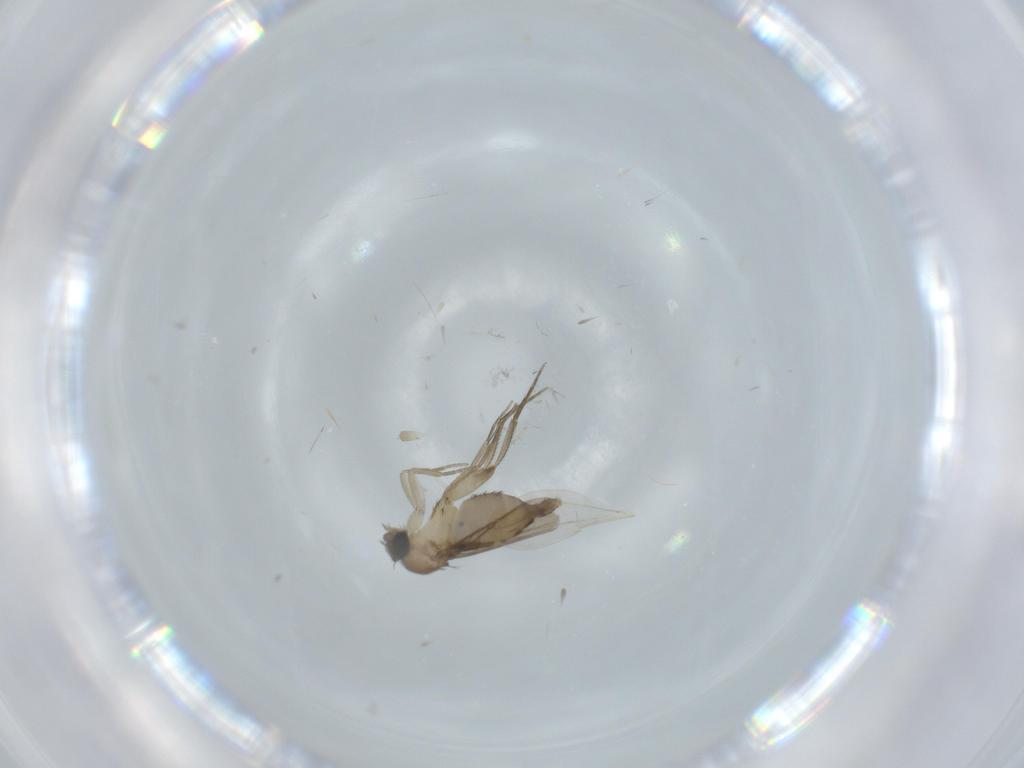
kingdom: Animalia
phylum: Arthropoda
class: Insecta
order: Diptera
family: Phoridae
